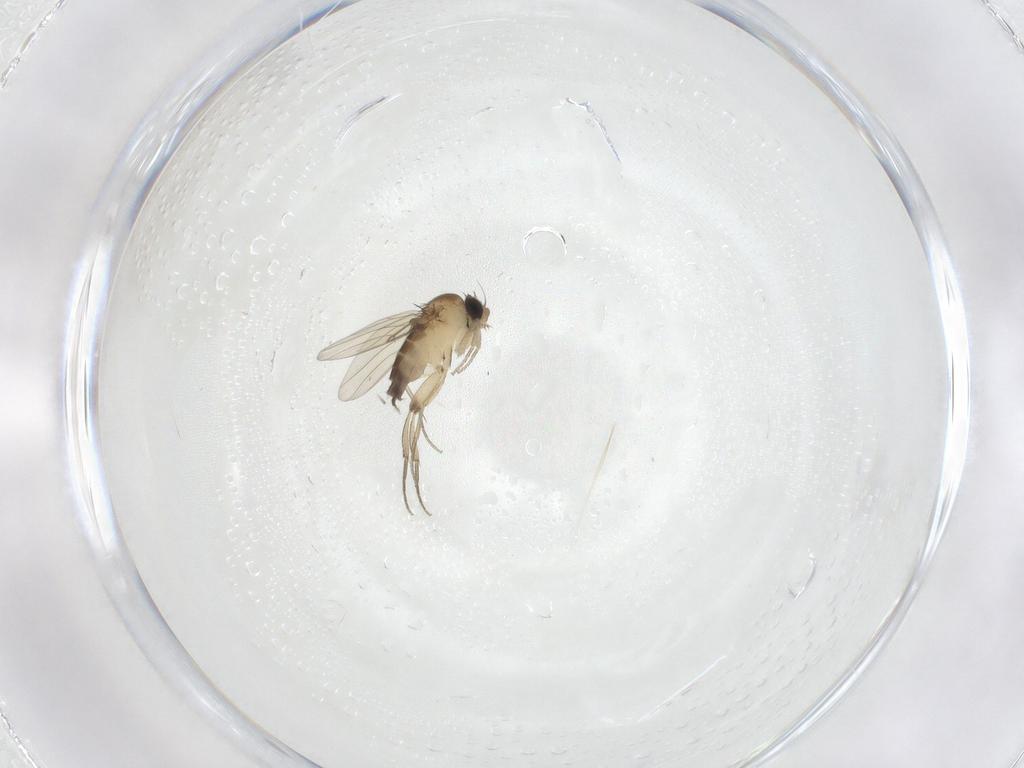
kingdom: Animalia
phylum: Arthropoda
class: Insecta
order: Diptera
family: Phoridae
